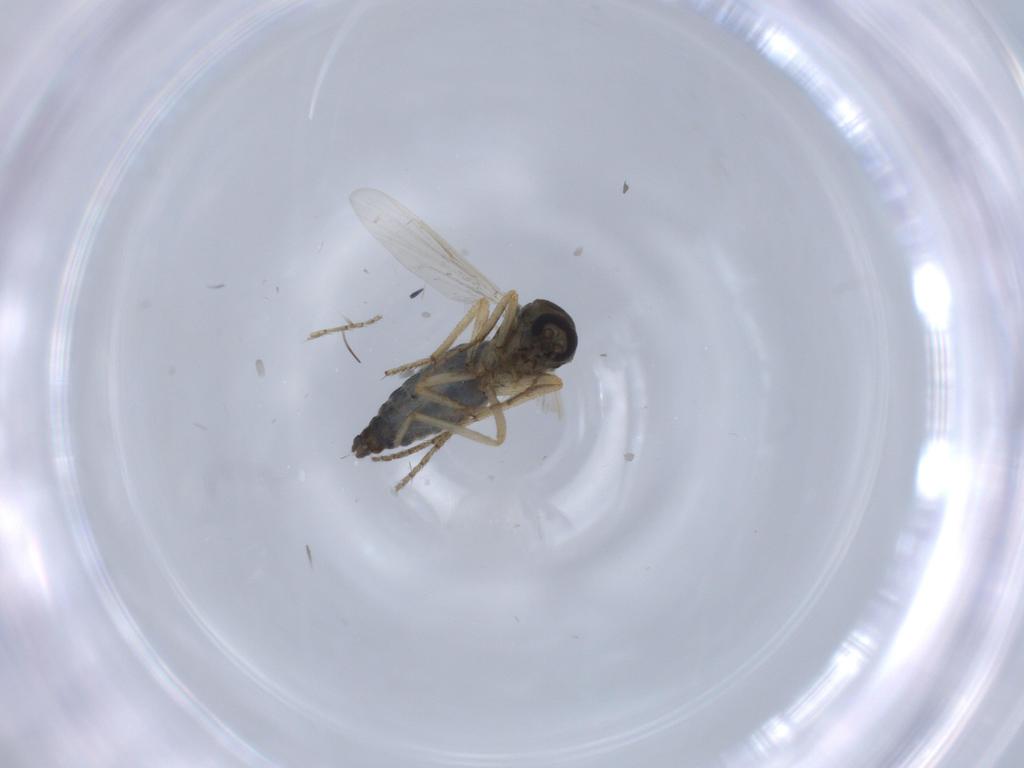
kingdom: Animalia
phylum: Arthropoda
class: Insecta
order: Diptera
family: Ceratopogonidae
